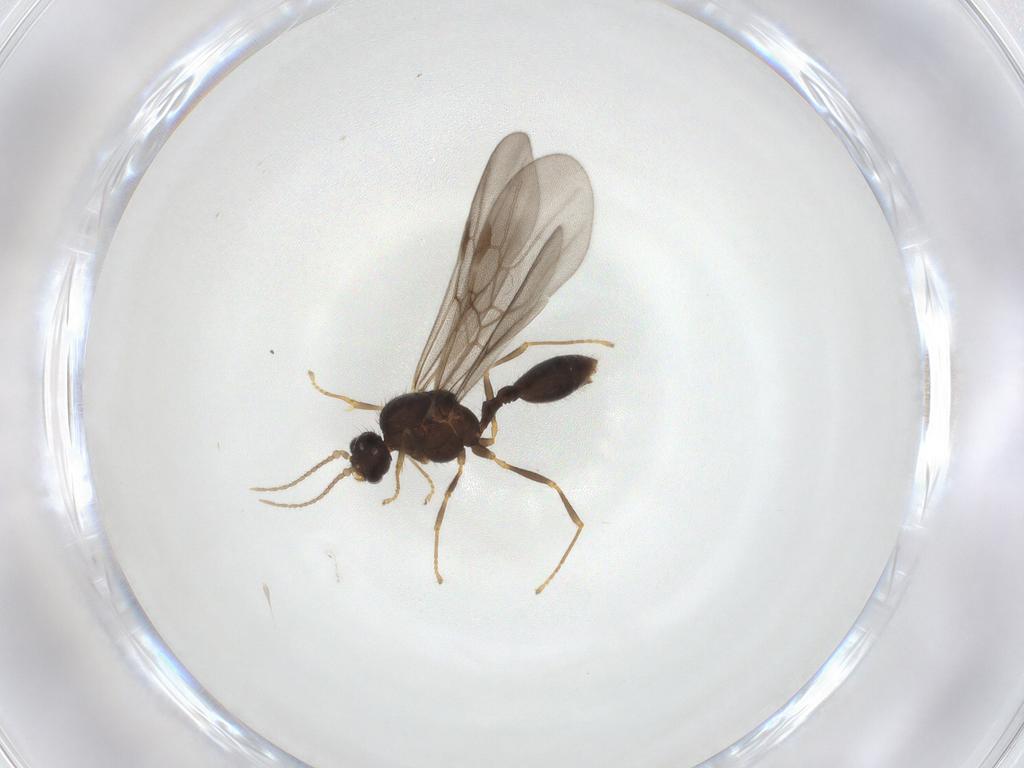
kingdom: Animalia
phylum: Arthropoda
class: Insecta
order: Hymenoptera
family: Formicidae
